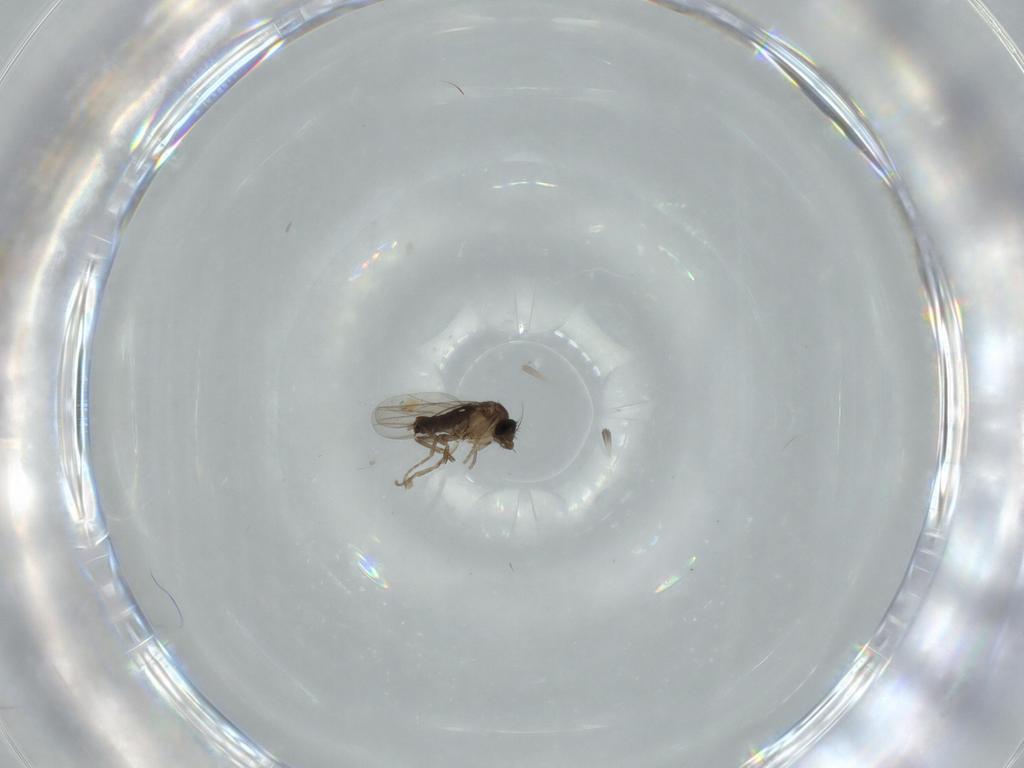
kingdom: Animalia
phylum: Arthropoda
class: Insecta
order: Diptera
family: Phoridae
